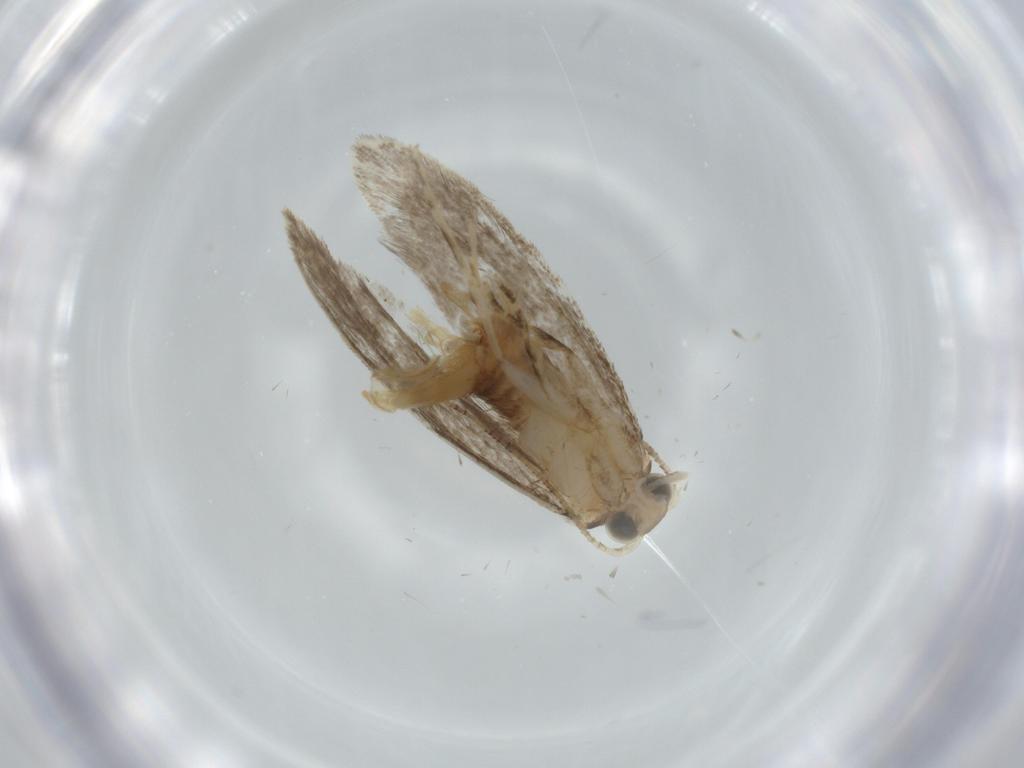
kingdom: Animalia
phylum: Arthropoda
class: Insecta
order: Lepidoptera
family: Tineidae
